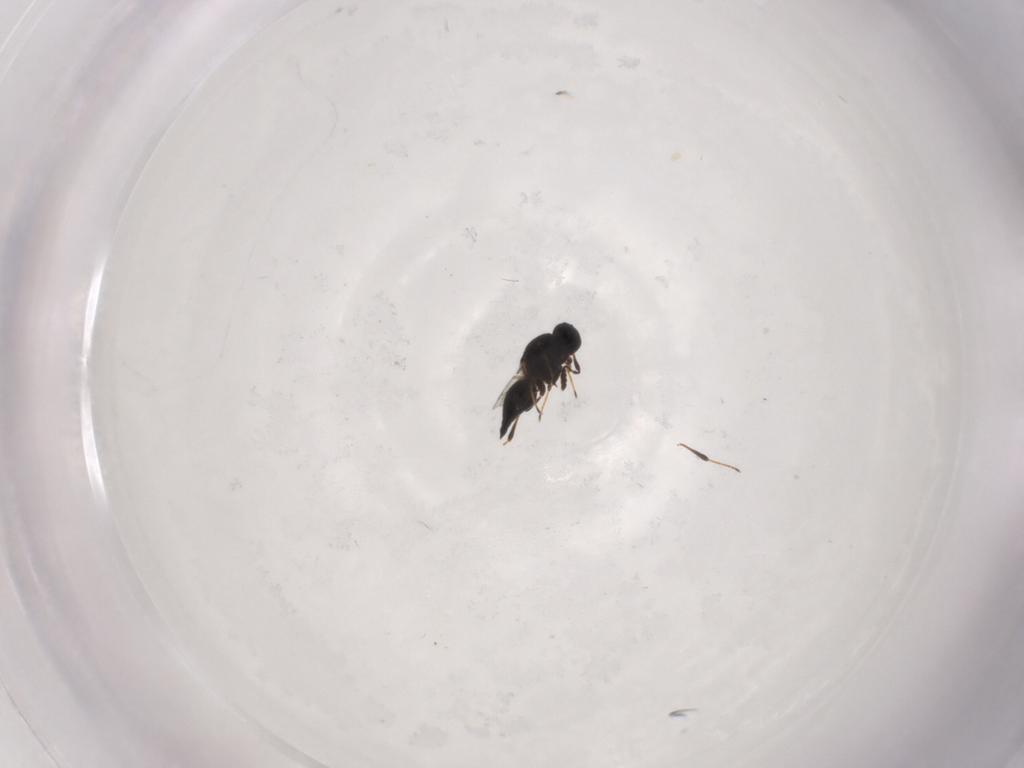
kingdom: Animalia
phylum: Arthropoda
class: Insecta
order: Hymenoptera
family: Platygastridae
